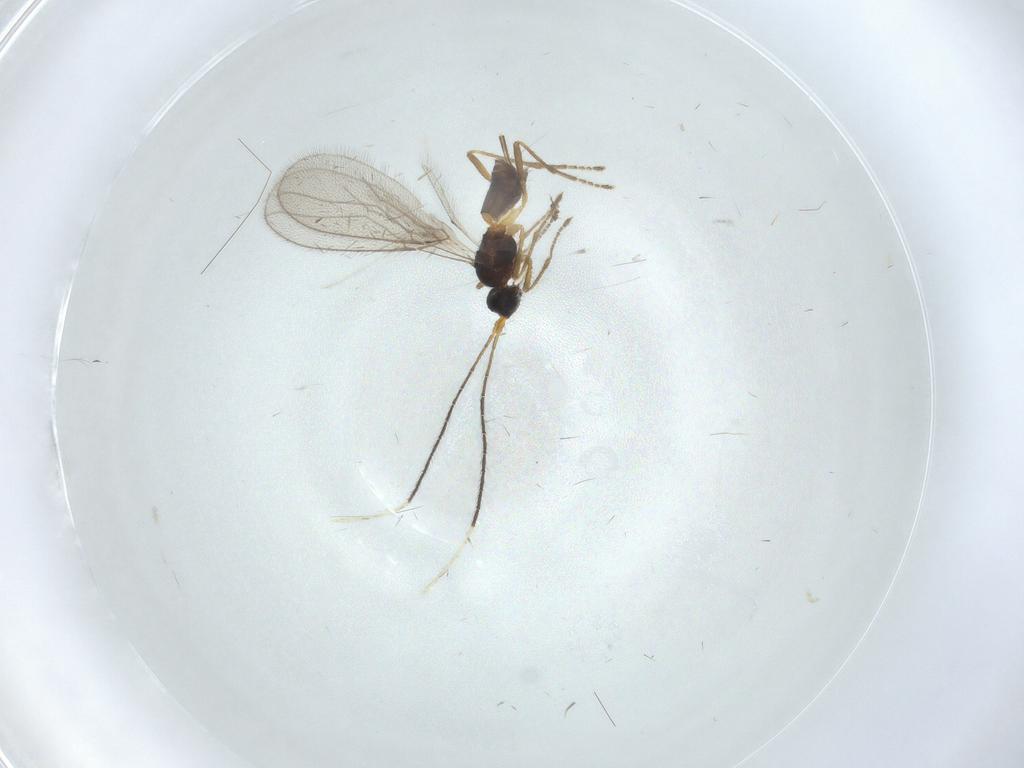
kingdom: Animalia
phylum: Arthropoda
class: Insecta
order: Hymenoptera
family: Braconidae
